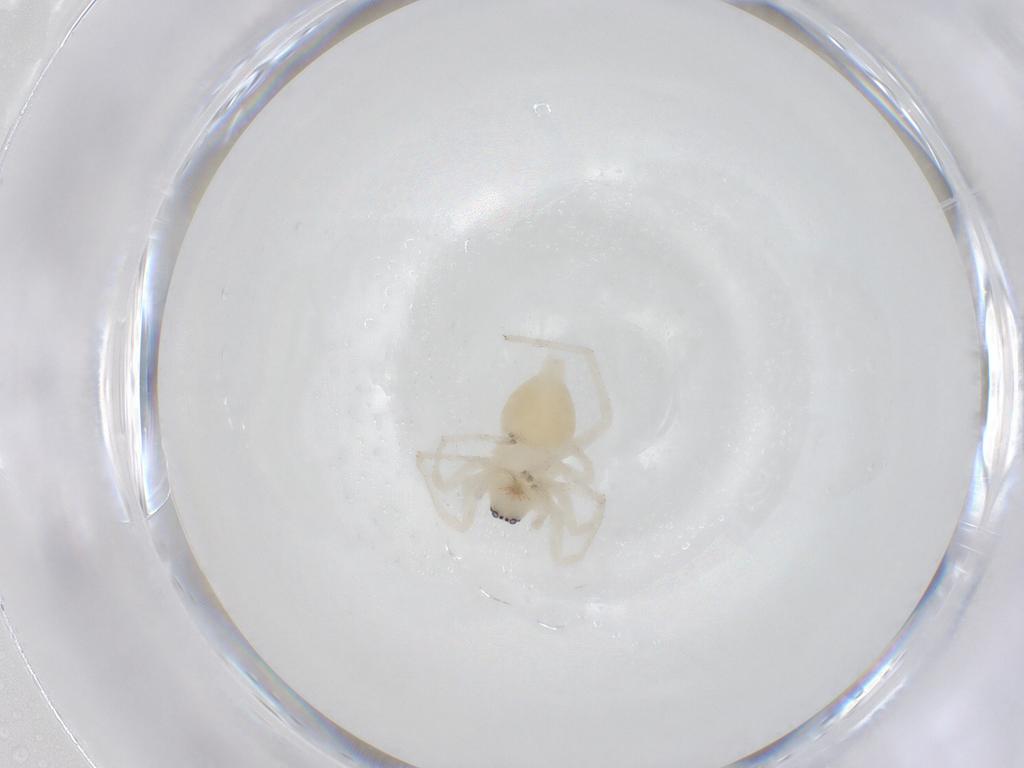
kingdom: Animalia
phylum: Arthropoda
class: Arachnida
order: Araneae
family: Anyphaenidae
